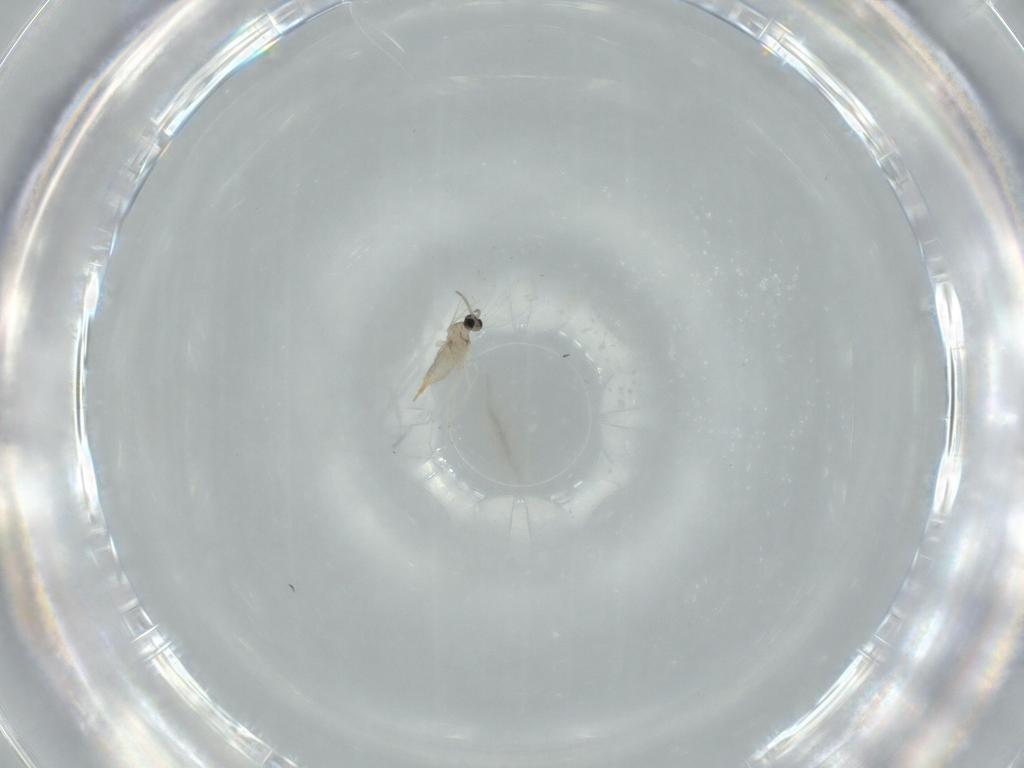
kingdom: Animalia
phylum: Arthropoda
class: Insecta
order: Diptera
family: Cecidomyiidae
